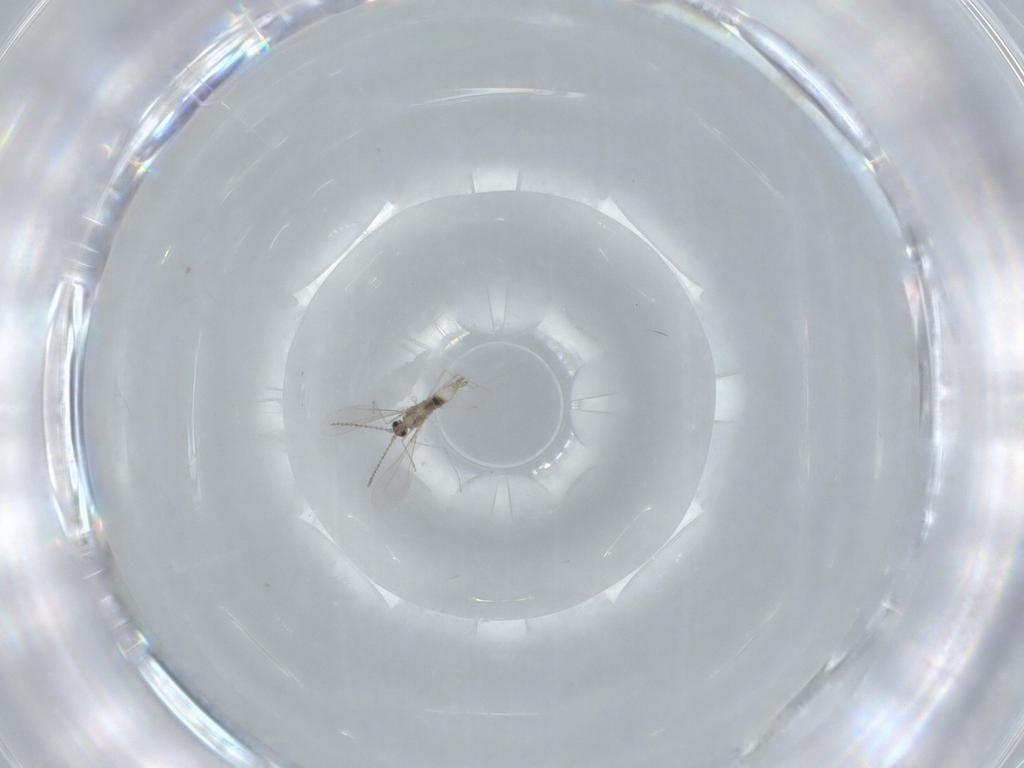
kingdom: Animalia
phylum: Arthropoda
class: Insecta
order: Diptera
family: Cecidomyiidae
